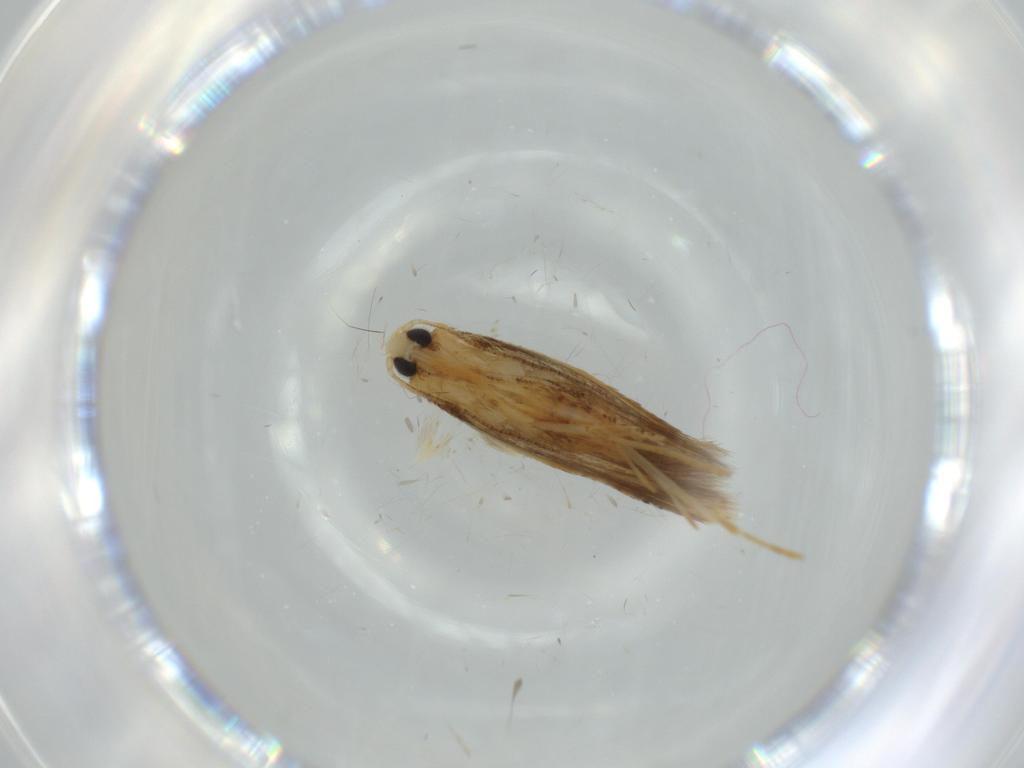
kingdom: Animalia
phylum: Arthropoda
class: Insecta
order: Lepidoptera
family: Tischeriidae
